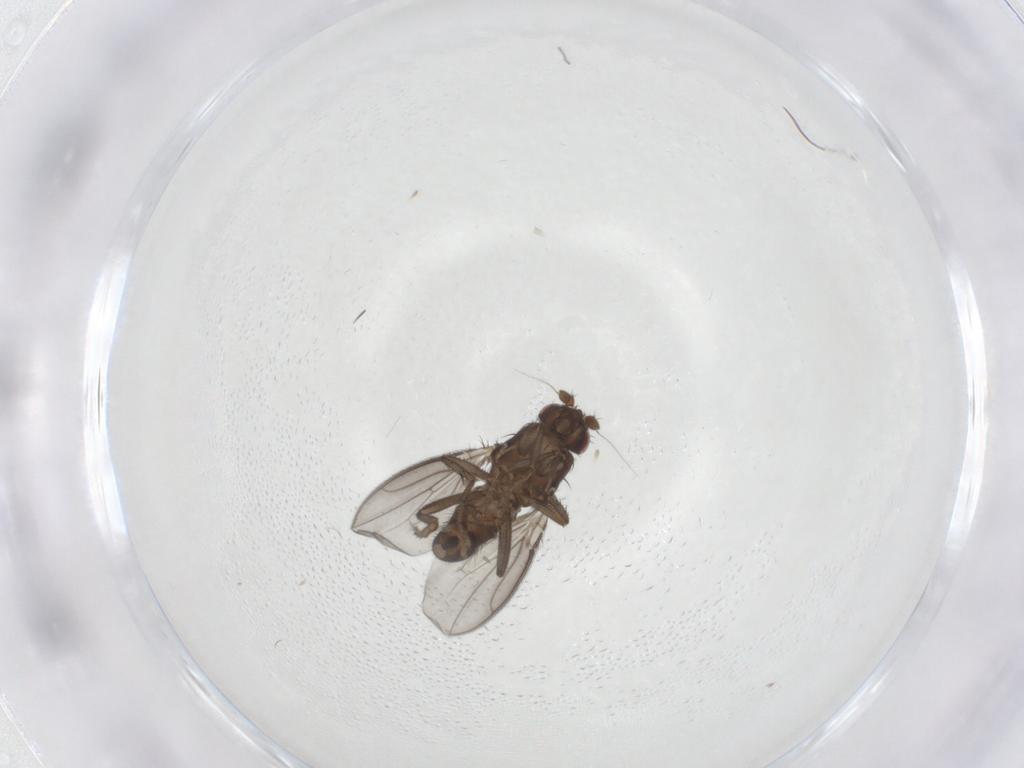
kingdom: Animalia
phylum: Arthropoda
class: Insecta
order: Diptera
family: Sphaeroceridae
